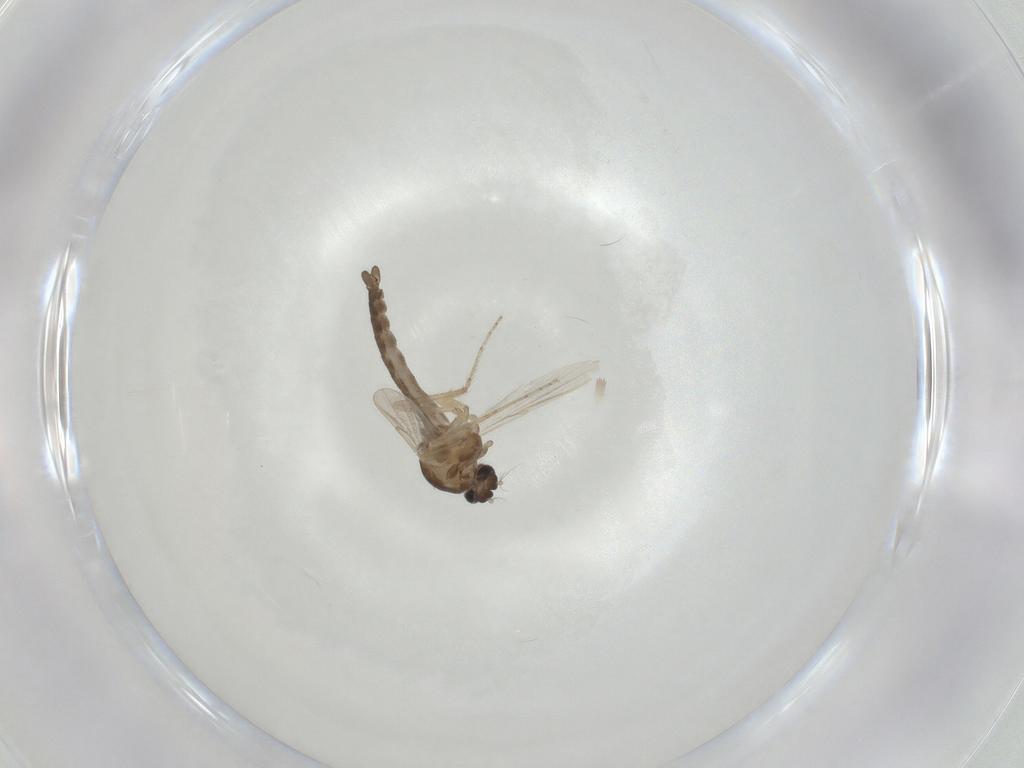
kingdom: Animalia
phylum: Arthropoda
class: Insecta
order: Diptera
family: Ceratopogonidae
